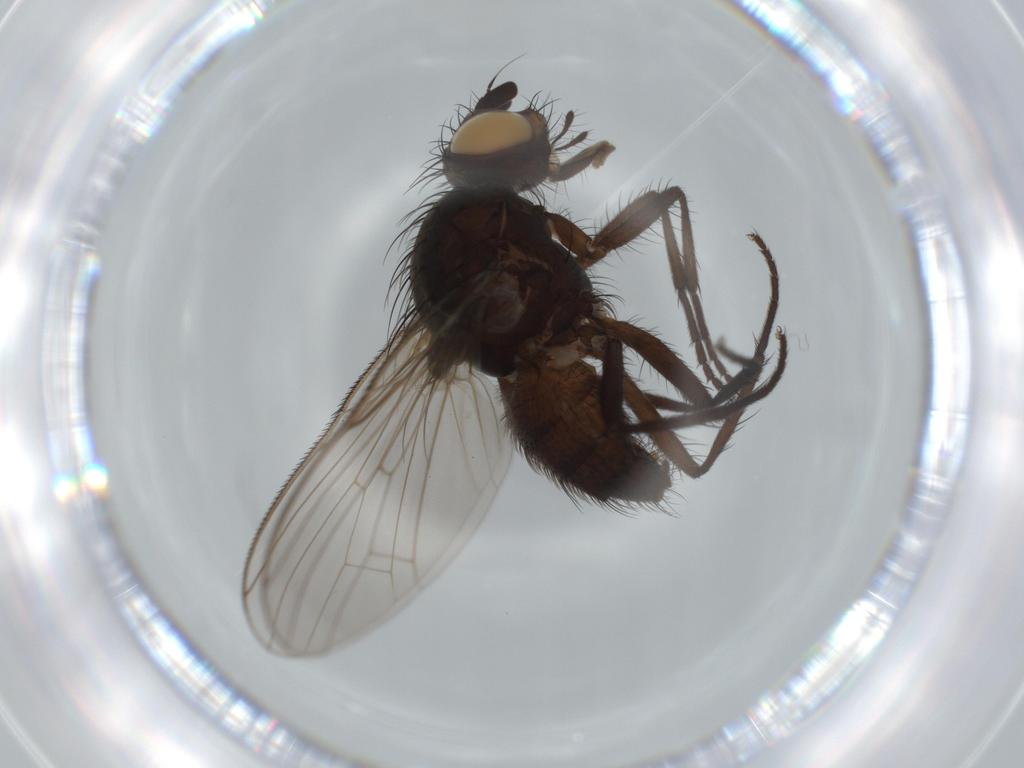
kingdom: Animalia
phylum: Arthropoda
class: Insecta
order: Diptera
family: Anthomyiidae
